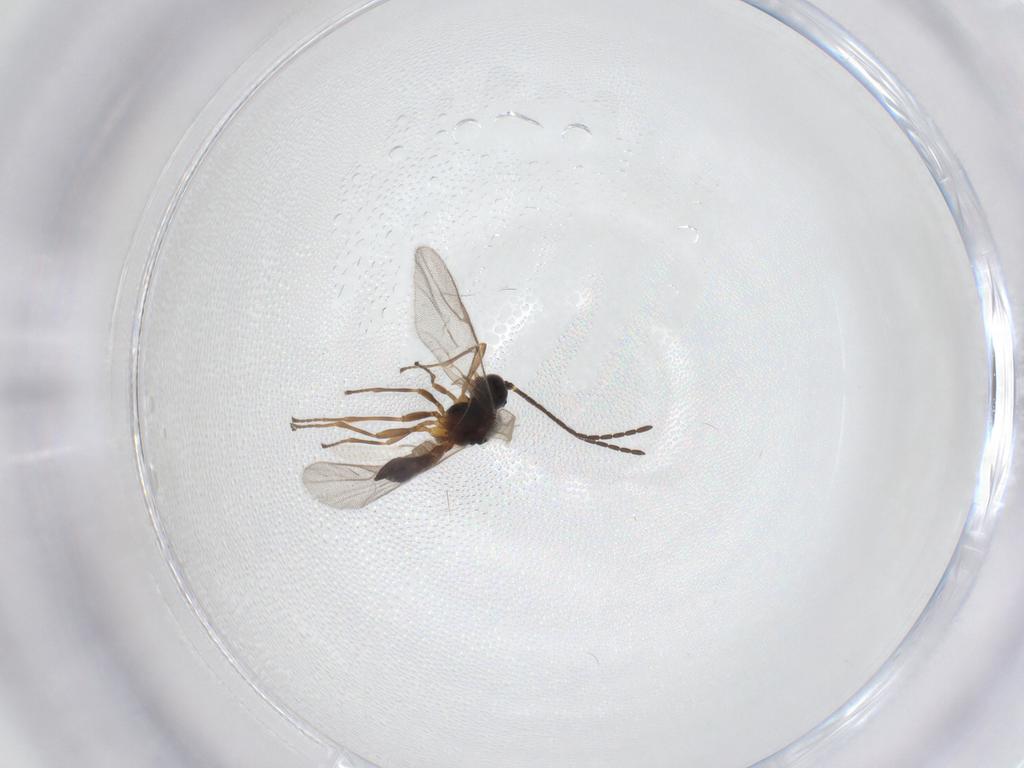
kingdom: Animalia
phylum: Arthropoda
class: Insecta
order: Hymenoptera
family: Braconidae
